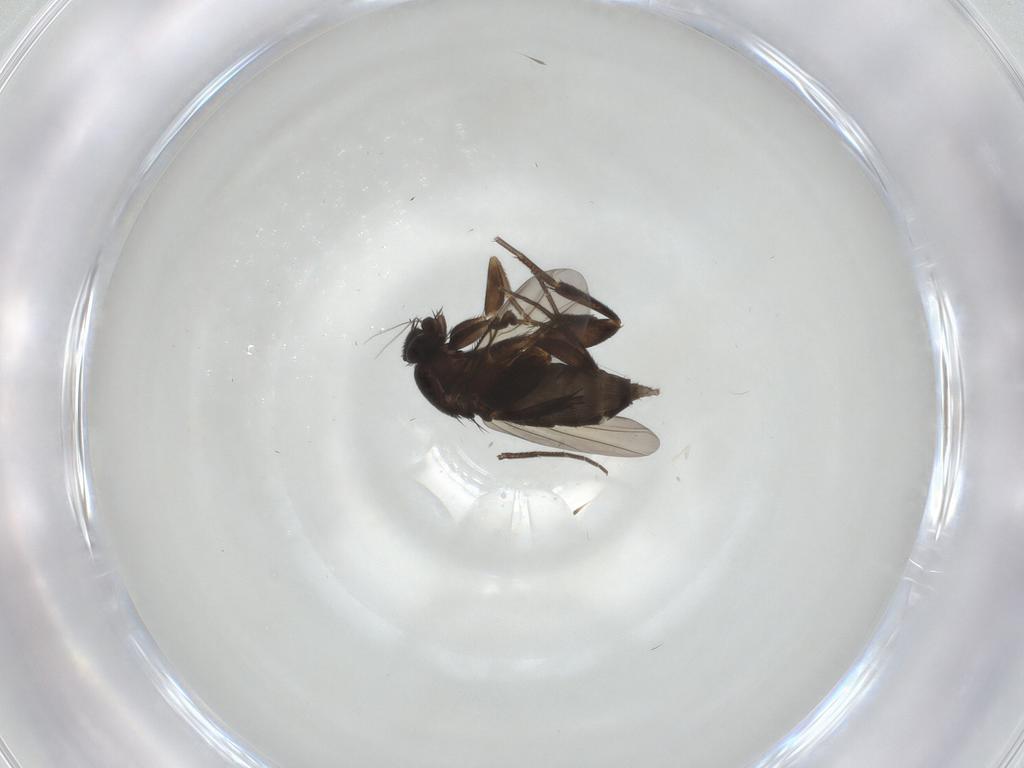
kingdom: Animalia
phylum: Arthropoda
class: Insecta
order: Diptera
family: Phoridae
